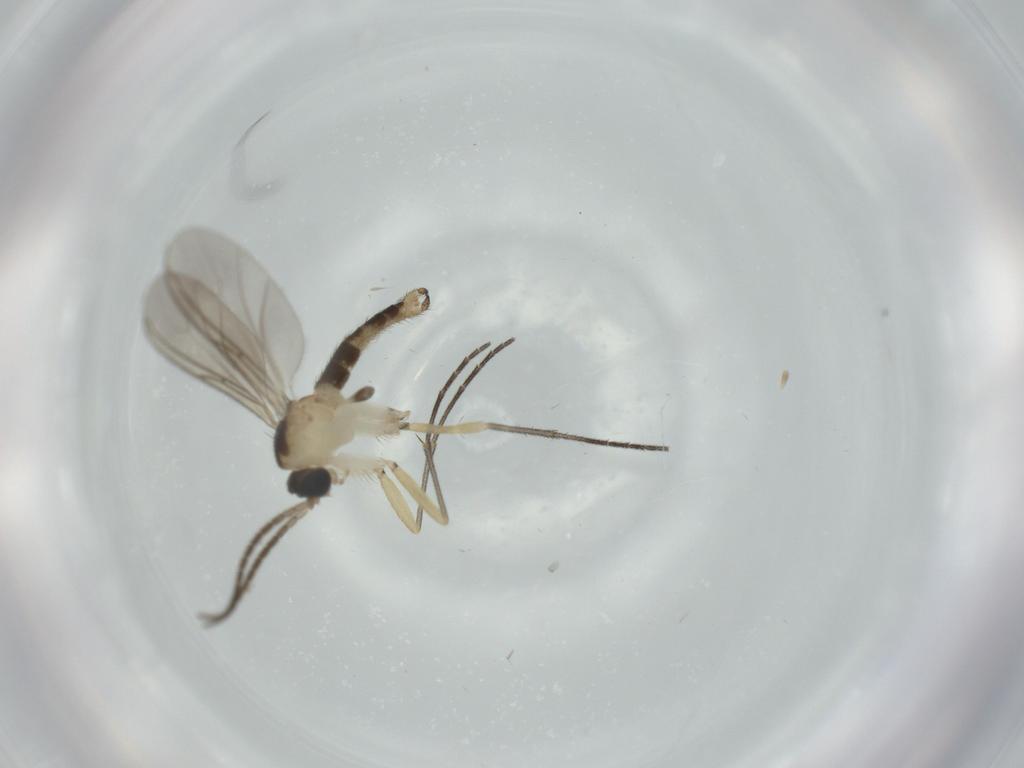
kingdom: Animalia
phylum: Arthropoda
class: Insecta
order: Diptera
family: Sciaridae
